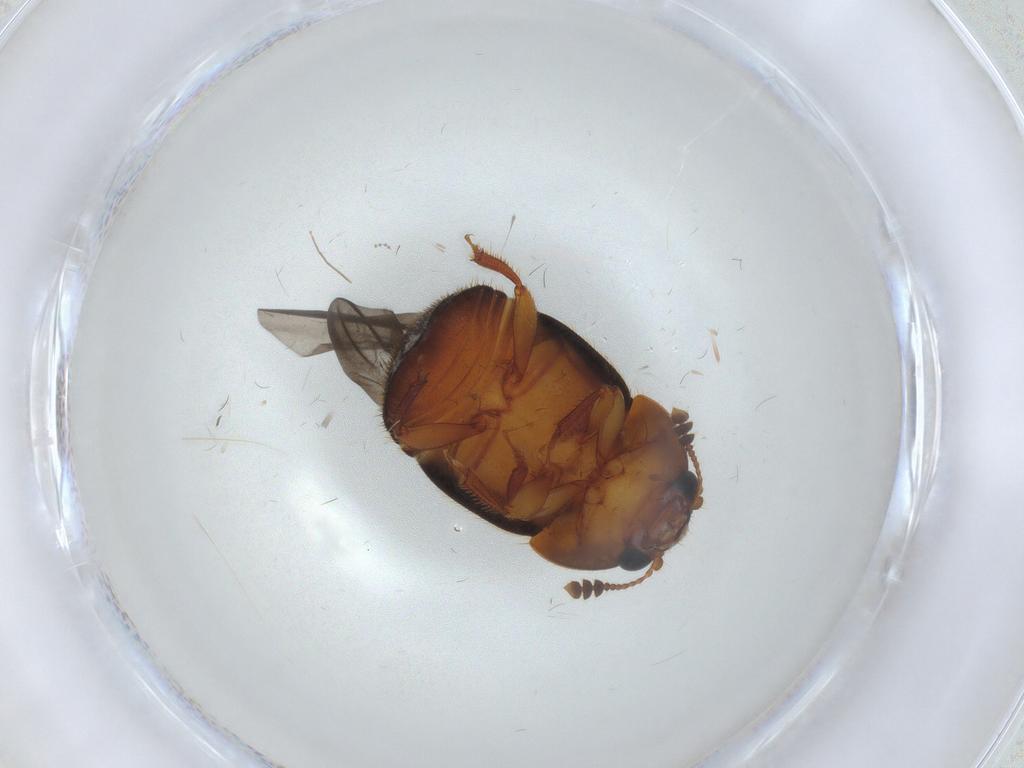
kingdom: Animalia
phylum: Arthropoda
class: Insecta
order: Coleoptera
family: Nitidulidae
